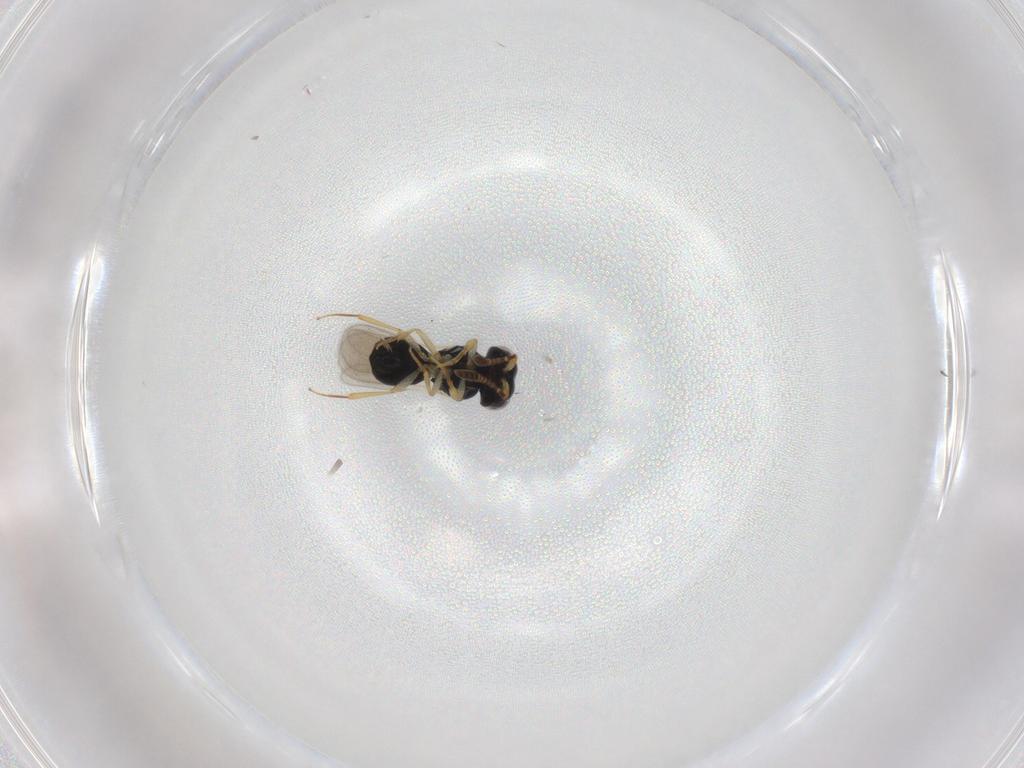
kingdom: Animalia
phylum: Arthropoda
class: Insecta
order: Hymenoptera
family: Scelionidae
